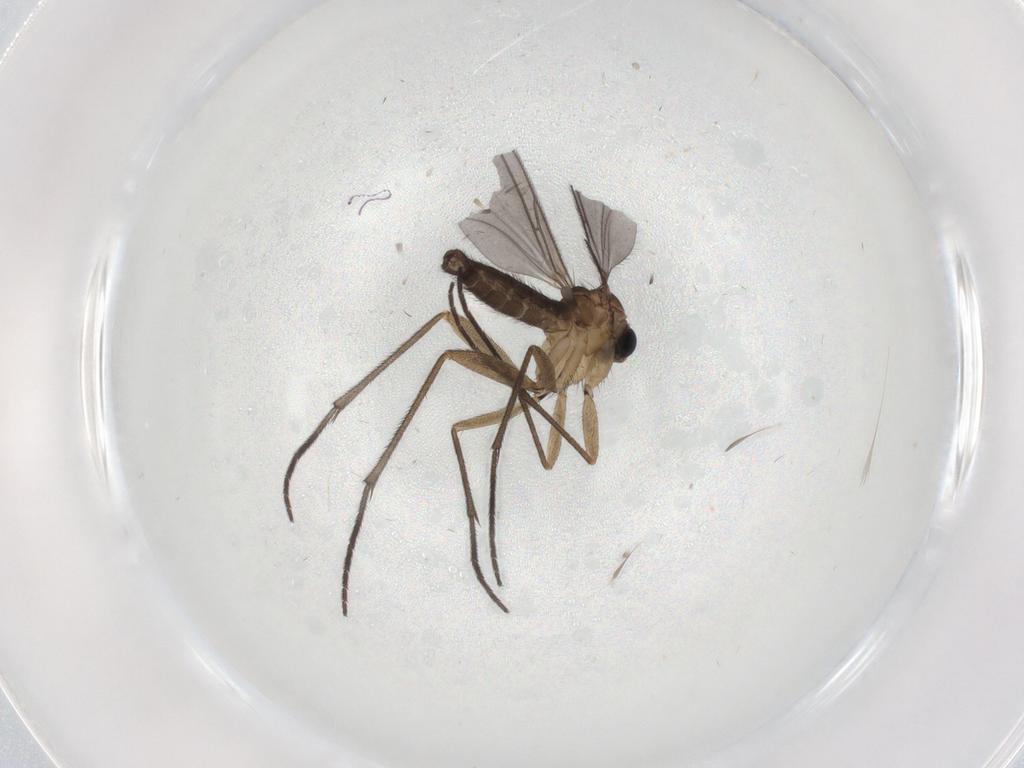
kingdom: Animalia
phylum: Arthropoda
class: Insecta
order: Diptera
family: Sciaridae
